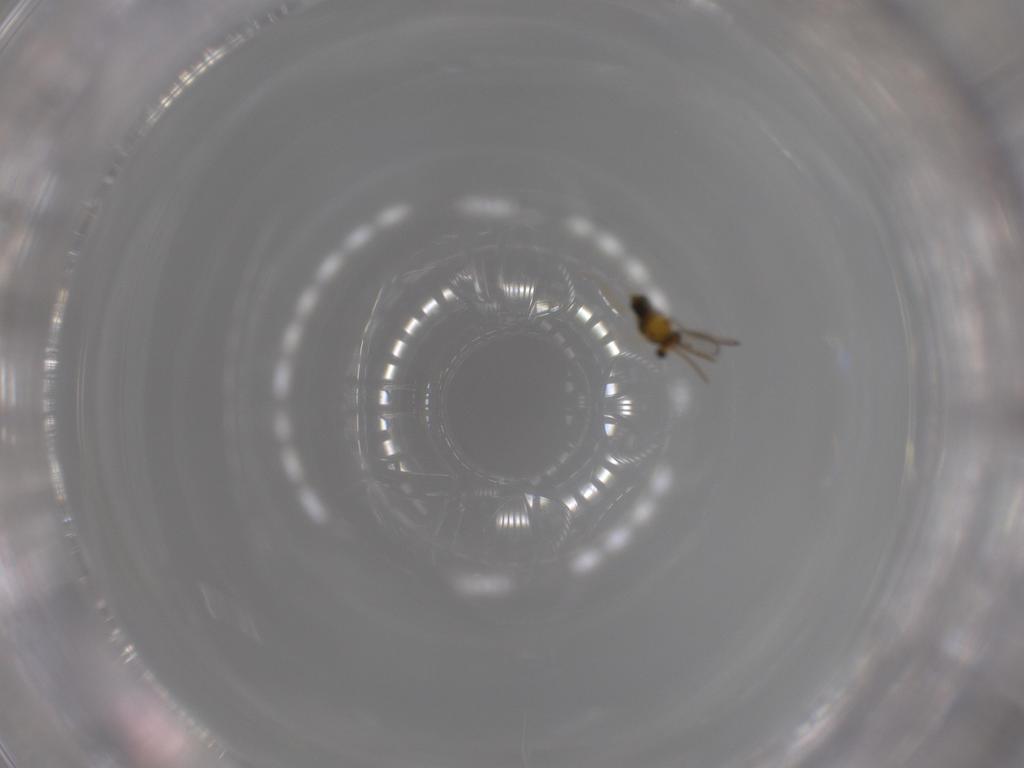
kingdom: Animalia
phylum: Arthropoda
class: Insecta
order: Hymenoptera
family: Aphelinidae
